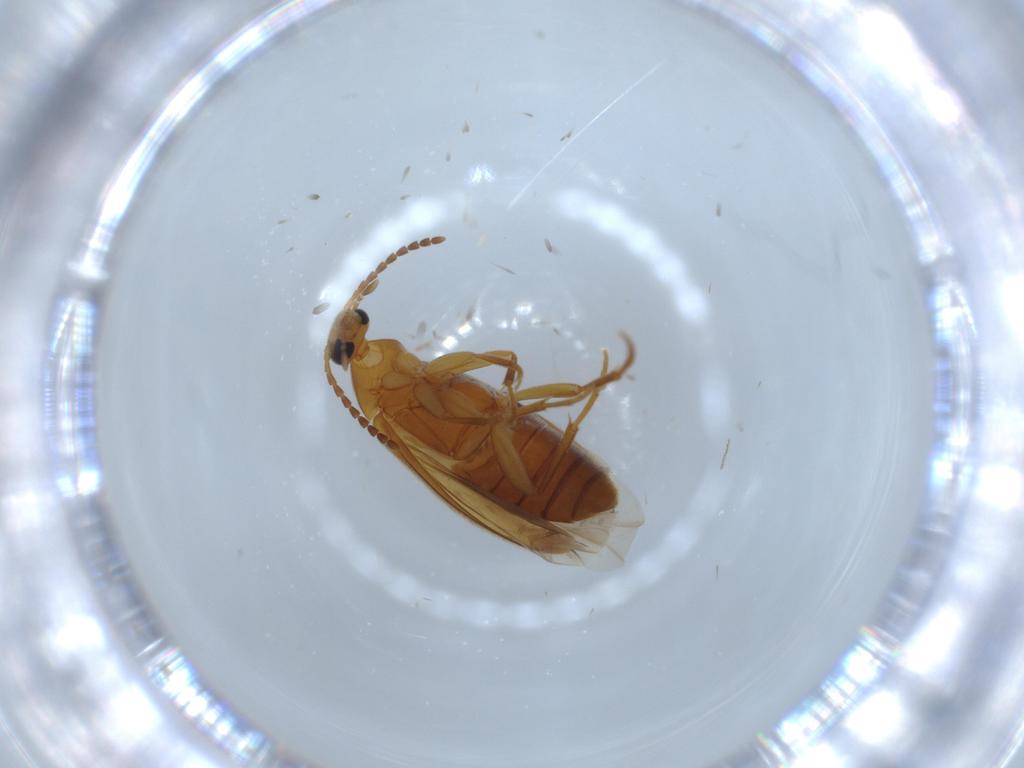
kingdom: Animalia
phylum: Arthropoda
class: Insecta
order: Coleoptera
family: Scraptiidae
